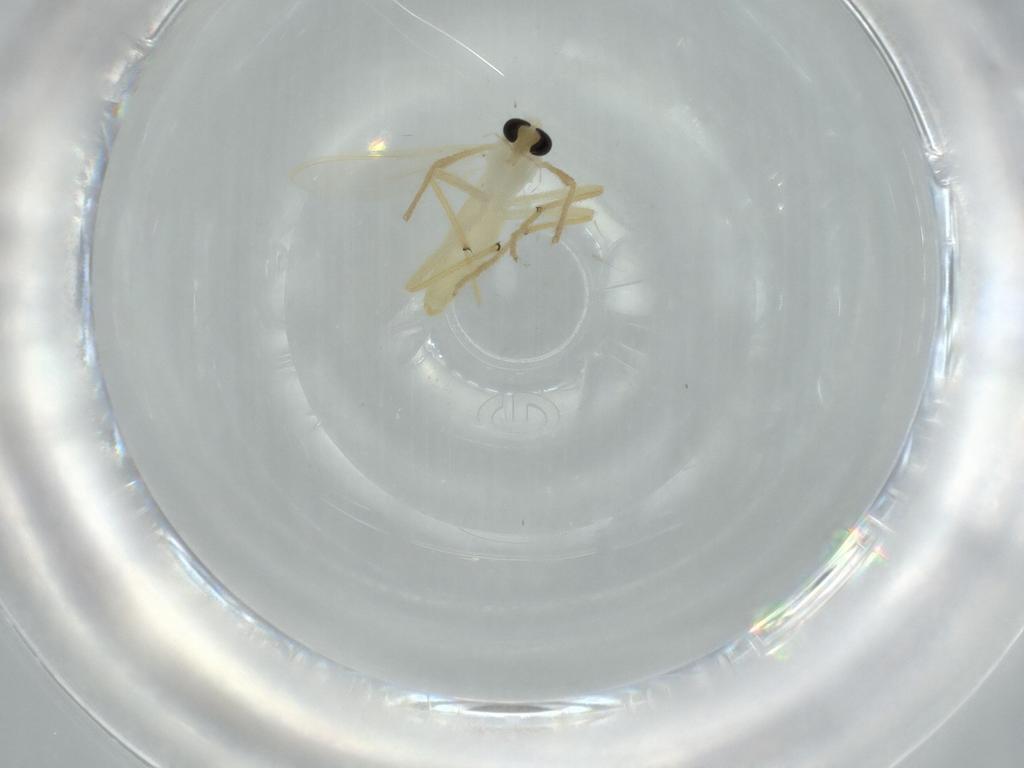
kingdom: Animalia
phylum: Arthropoda
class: Insecta
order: Diptera
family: Chironomidae
